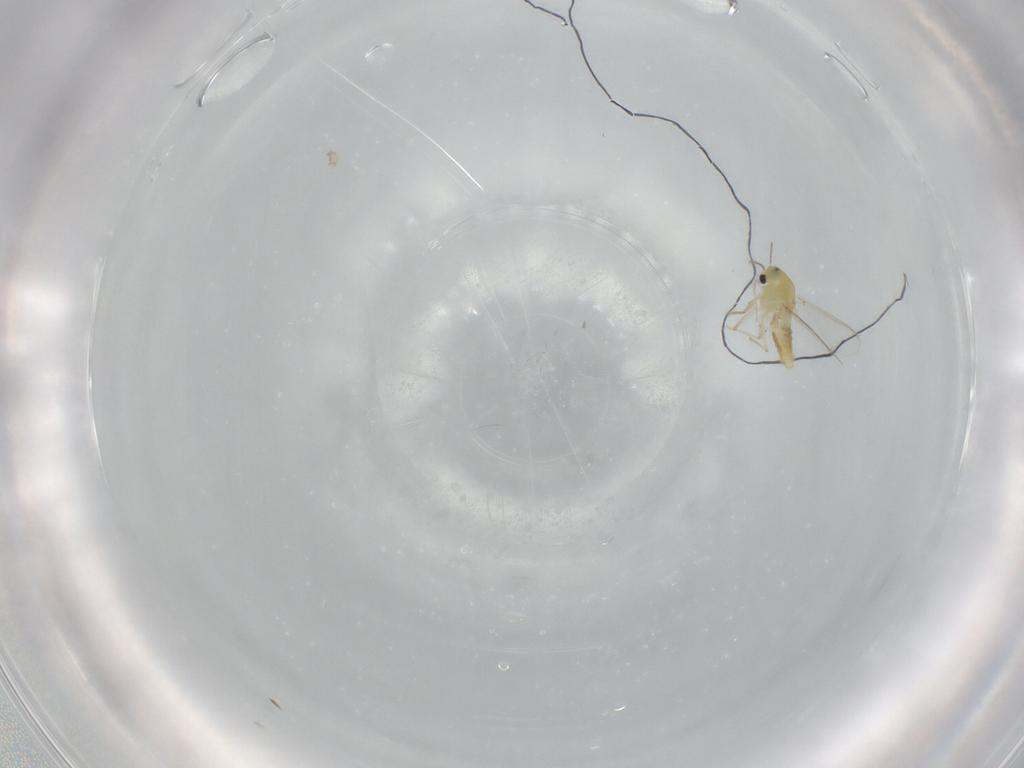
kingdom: Animalia
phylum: Arthropoda
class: Insecta
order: Diptera
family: Chironomidae
